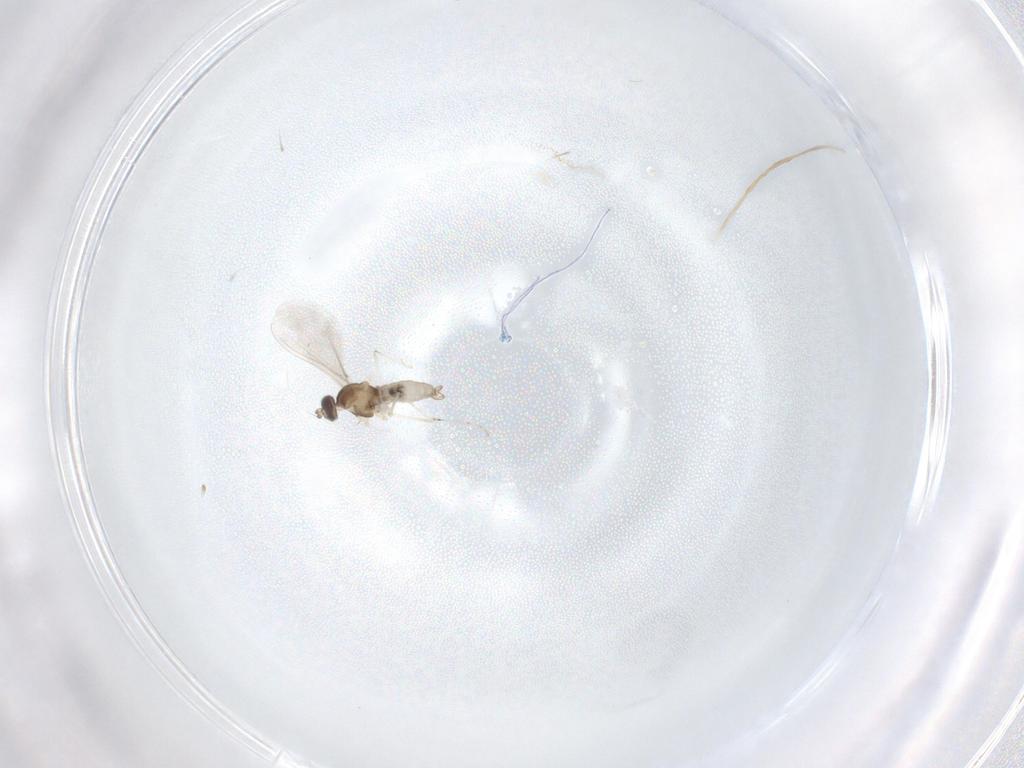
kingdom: Animalia
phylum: Arthropoda
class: Insecta
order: Diptera
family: Cecidomyiidae
